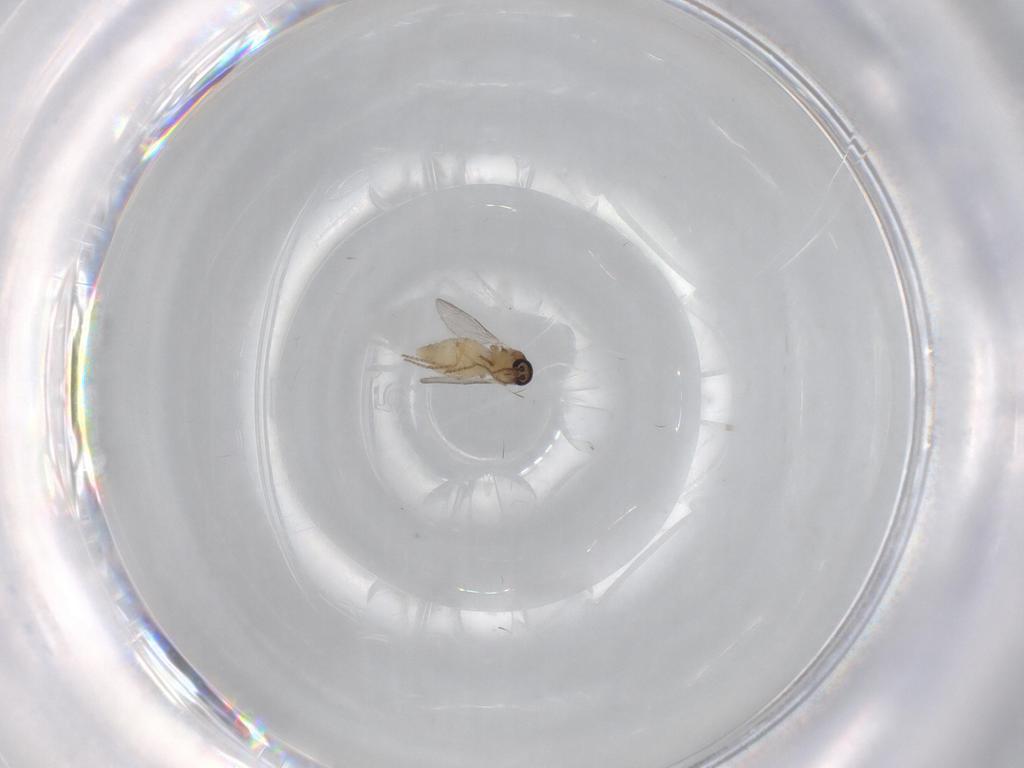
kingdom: Animalia
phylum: Arthropoda
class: Insecta
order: Diptera
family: Ceratopogonidae
